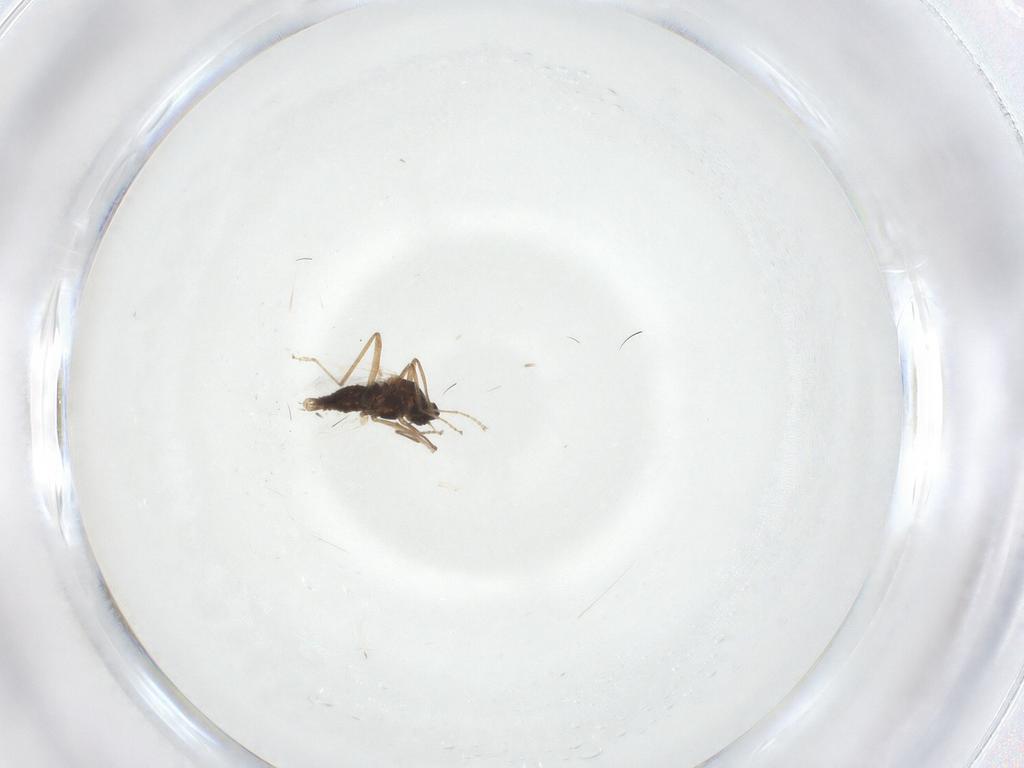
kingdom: Animalia
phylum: Arthropoda
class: Insecta
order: Diptera
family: Cecidomyiidae
